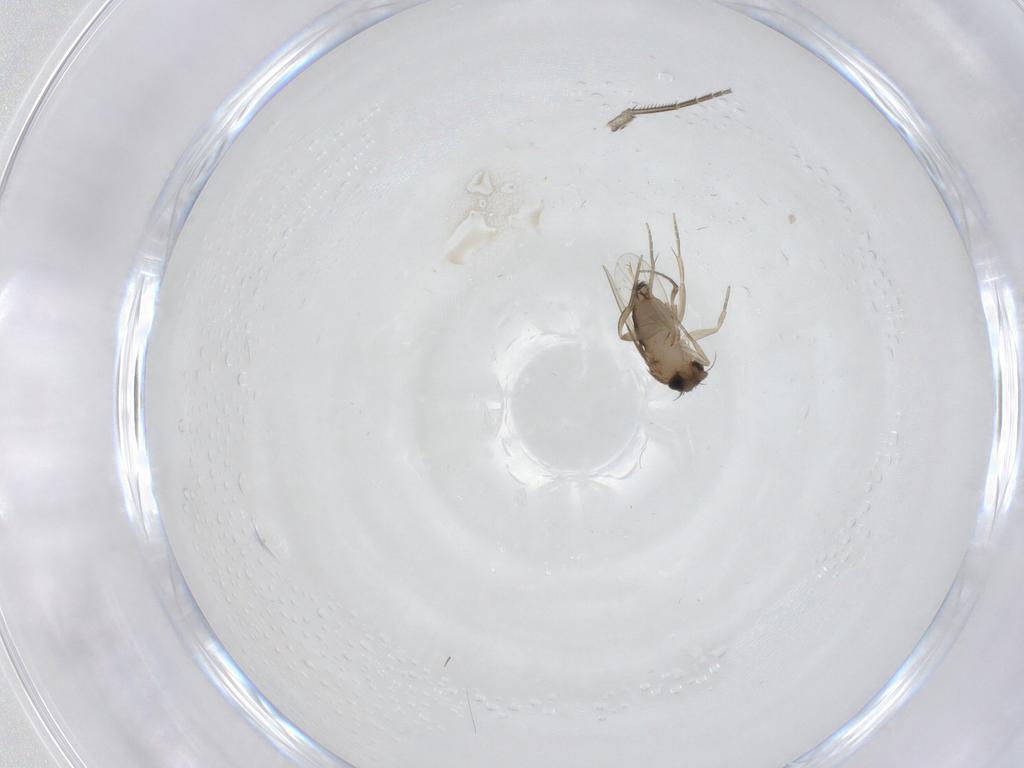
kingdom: Animalia
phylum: Arthropoda
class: Insecta
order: Diptera
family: Phoridae
